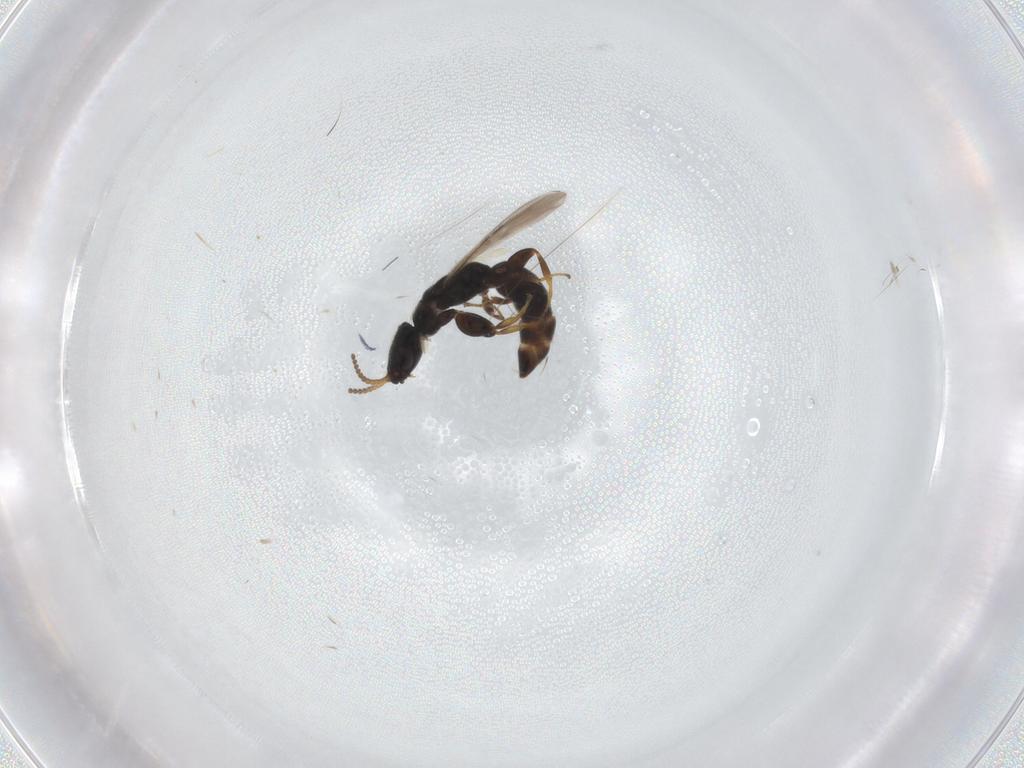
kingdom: Animalia
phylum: Arthropoda
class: Insecta
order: Hymenoptera
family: Bethylidae
